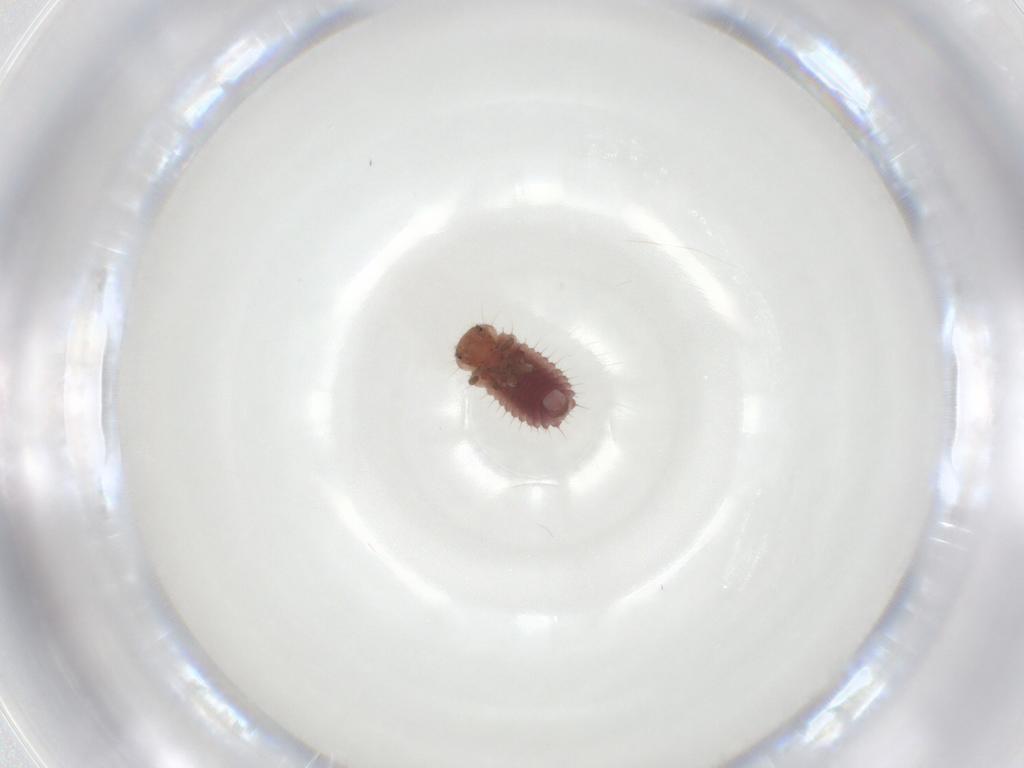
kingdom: Animalia
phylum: Arthropoda
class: Insecta
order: Coleoptera
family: Coccinellidae
